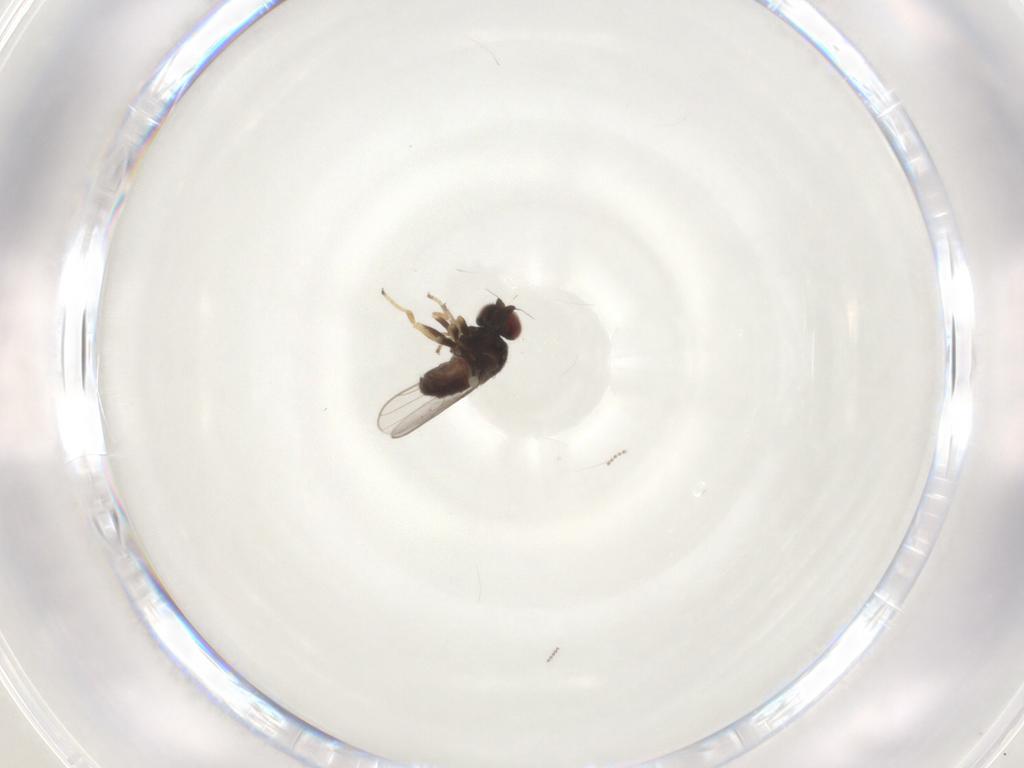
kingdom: Animalia
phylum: Arthropoda
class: Insecta
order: Diptera
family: Chloropidae
